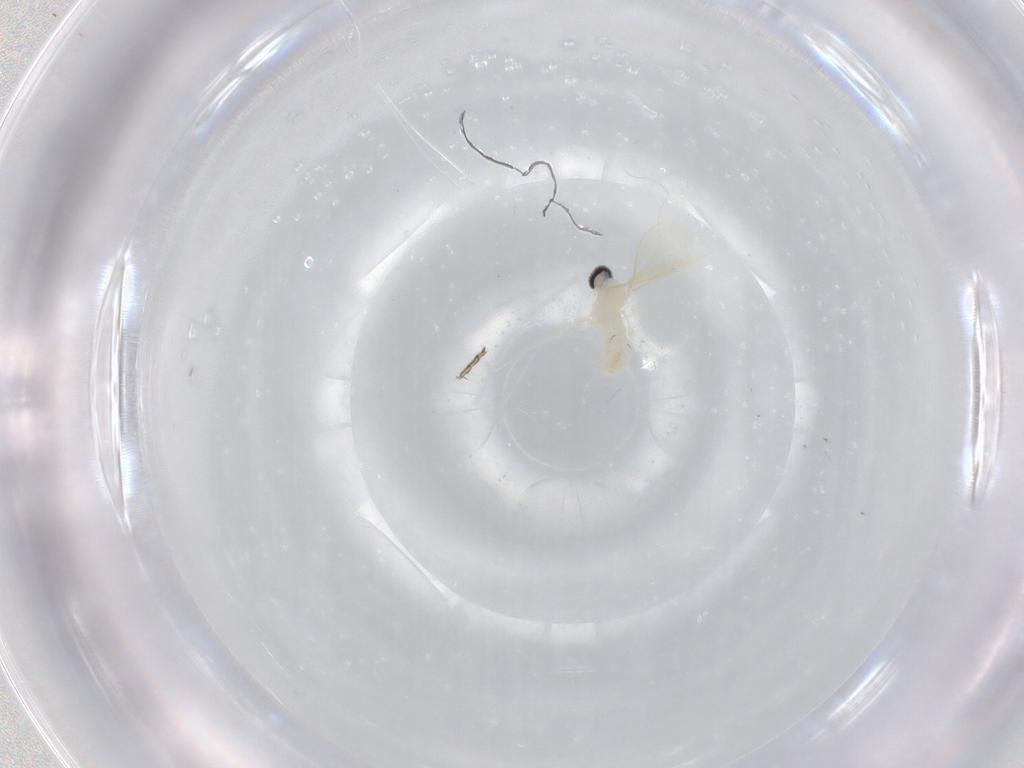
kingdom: Animalia
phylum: Arthropoda
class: Insecta
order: Diptera
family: Cecidomyiidae
